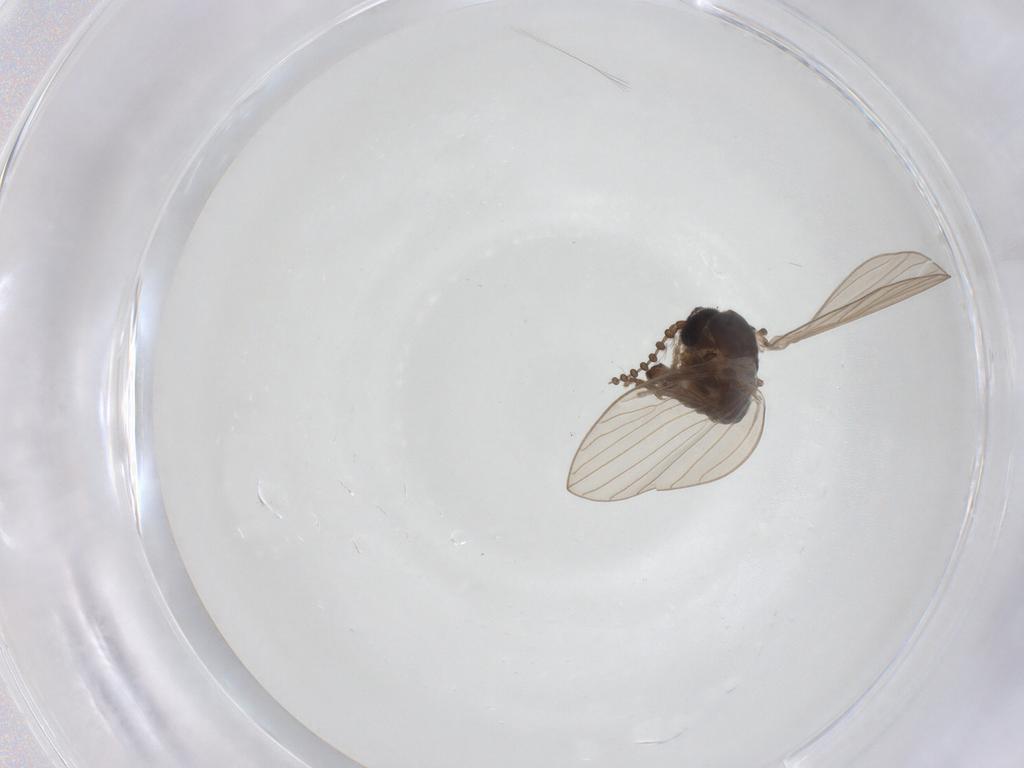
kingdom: Animalia
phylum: Arthropoda
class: Insecta
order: Diptera
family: Psychodidae
